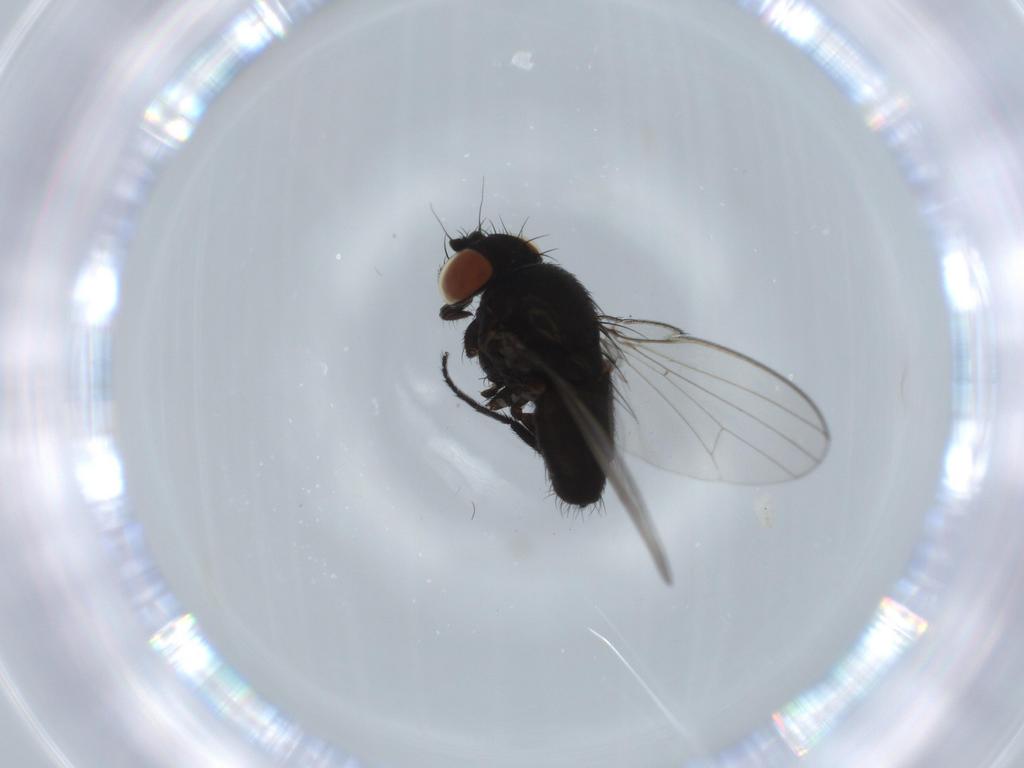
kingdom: Animalia
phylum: Arthropoda
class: Insecta
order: Diptera
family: Milichiidae
